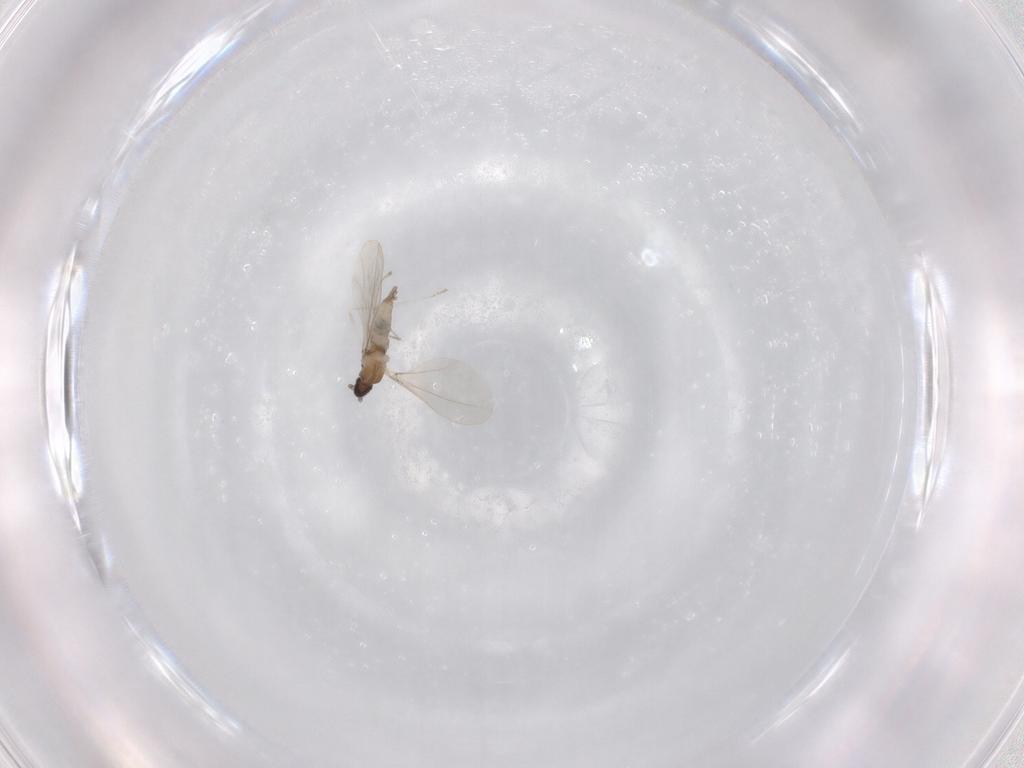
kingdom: Animalia
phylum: Arthropoda
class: Insecta
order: Diptera
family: Cecidomyiidae
